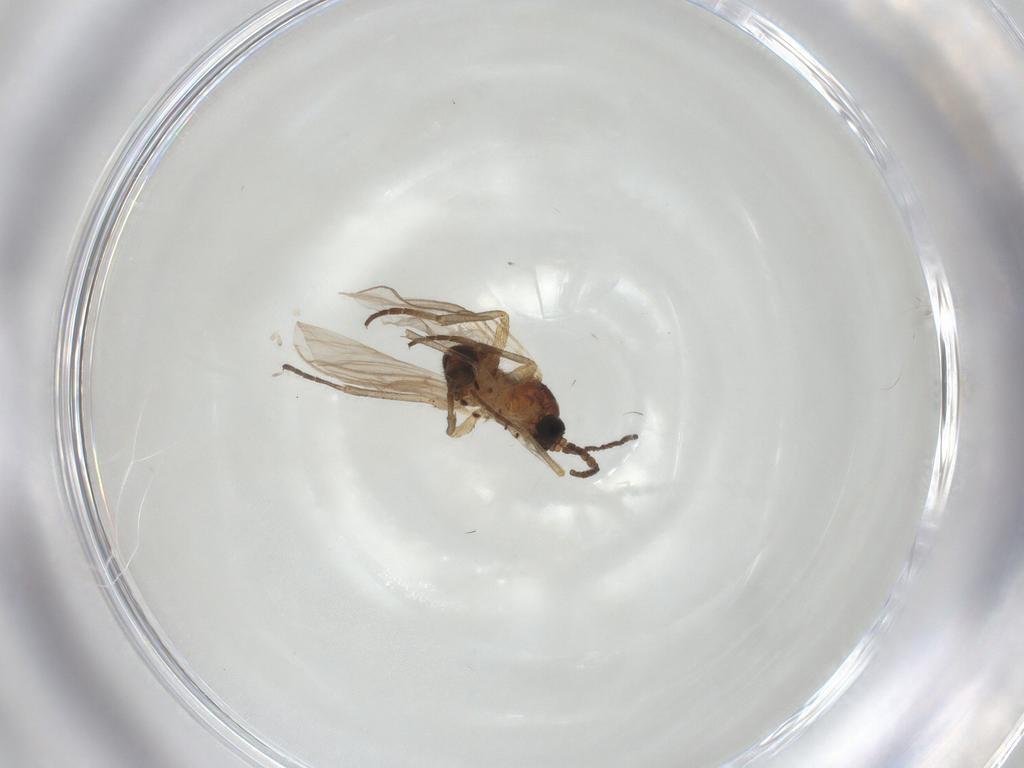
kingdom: Animalia
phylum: Arthropoda
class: Insecta
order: Diptera
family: Sciaridae
